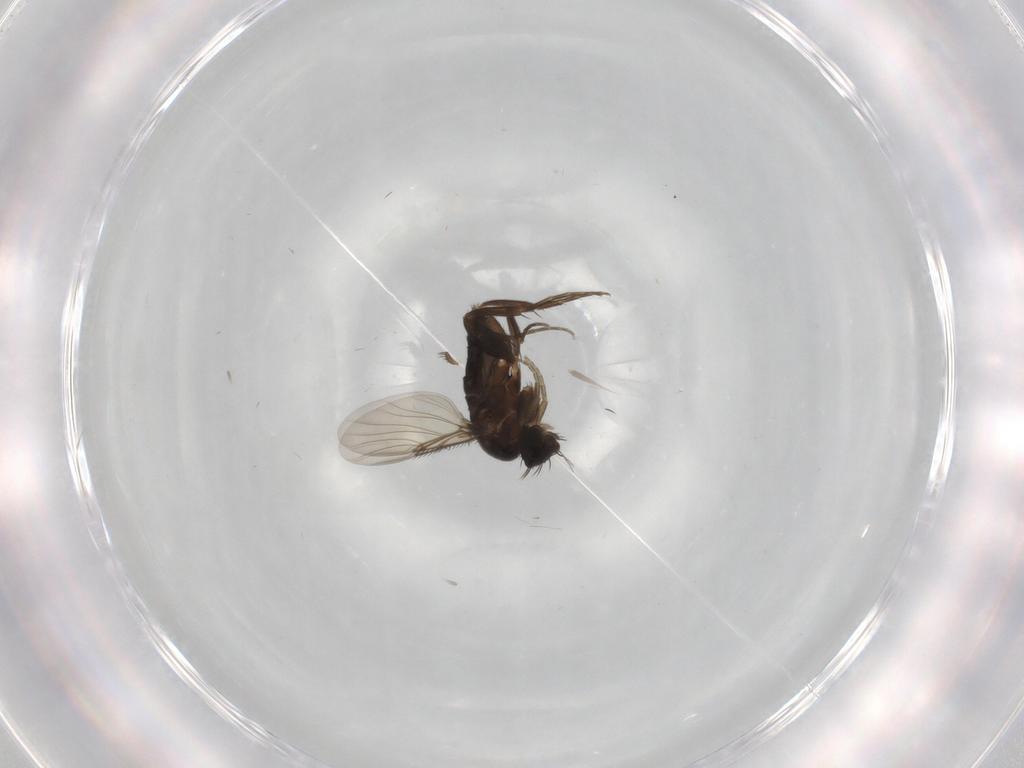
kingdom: Animalia
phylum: Arthropoda
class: Insecta
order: Diptera
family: Phoridae
